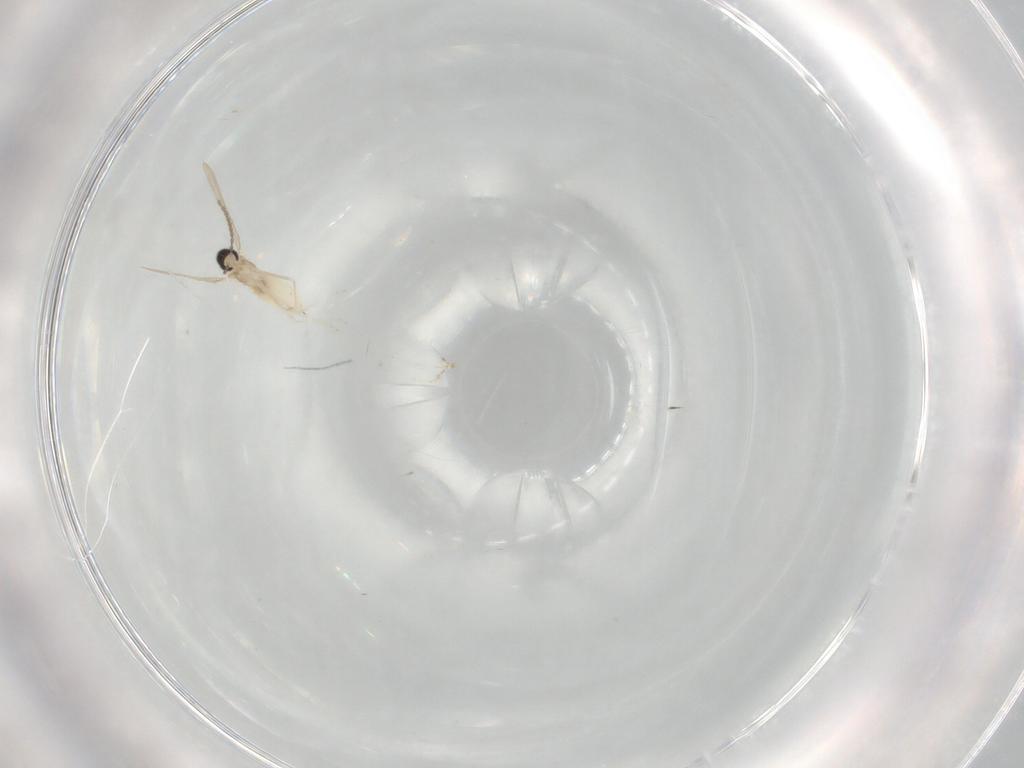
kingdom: Animalia
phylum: Arthropoda
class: Insecta
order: Diptera
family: Cecidomyiidae
